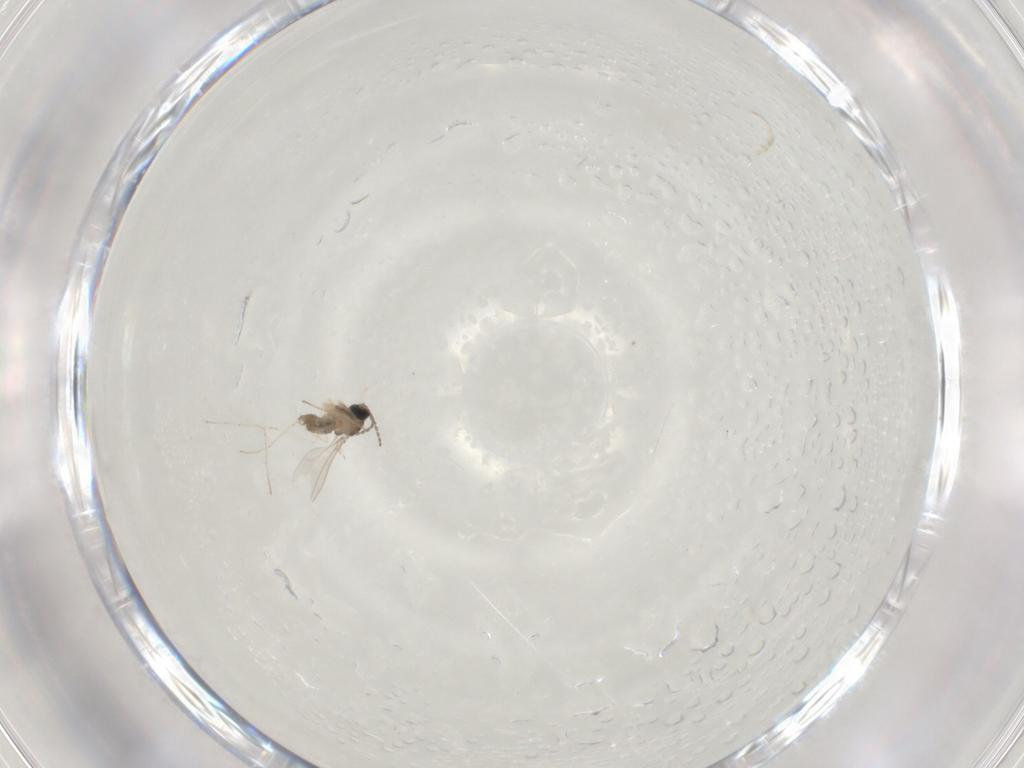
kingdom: Animalia
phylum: Arthropoda
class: Insecta
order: Diptera
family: Cecidomyiidae
